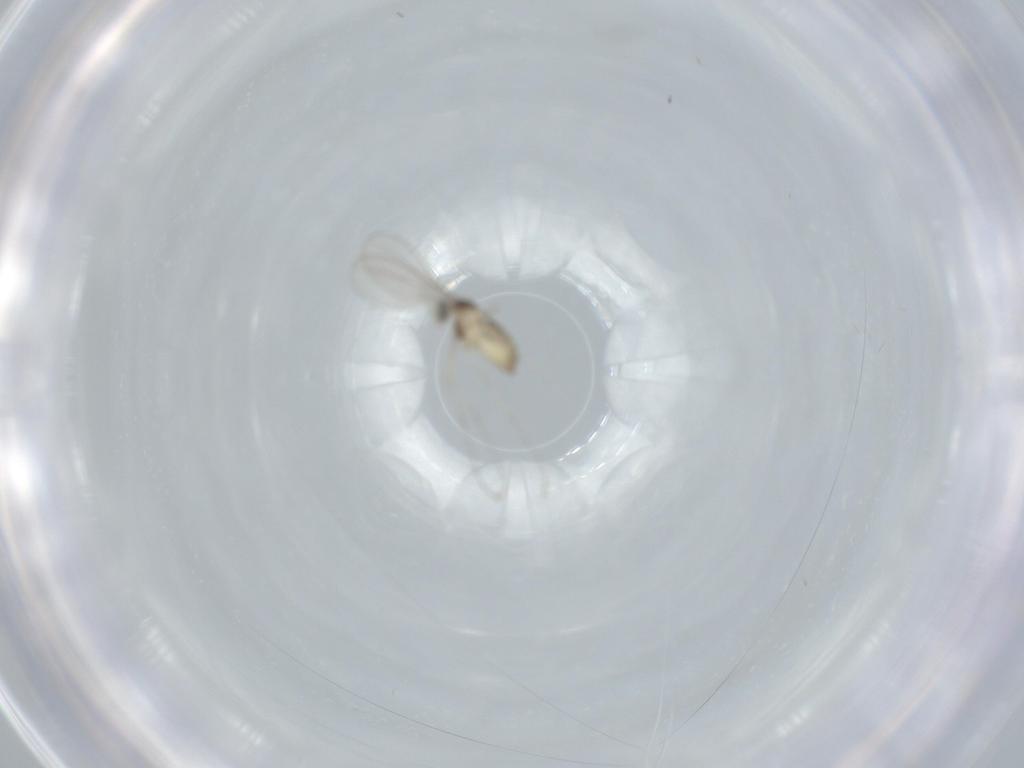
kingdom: Animalia
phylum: Arthropoda
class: Insecta
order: Diptera
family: Cecidomyiidae
